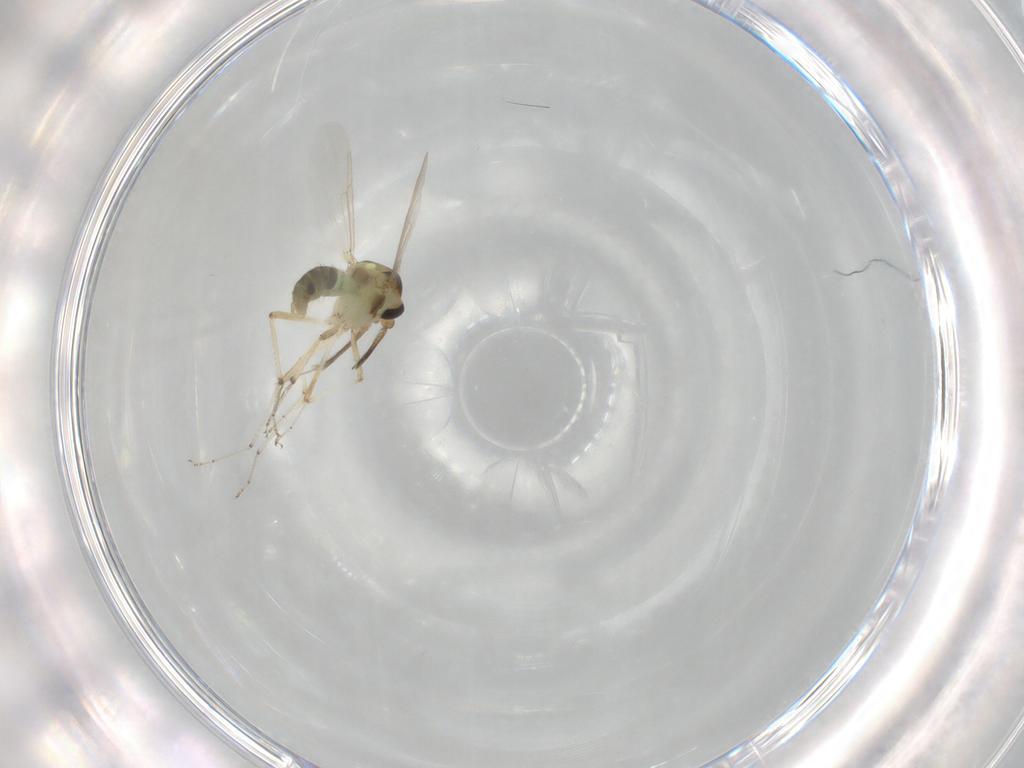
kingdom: Animalia
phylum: Arthropoda
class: Insecta
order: Diptera
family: Ceratopogonidae
